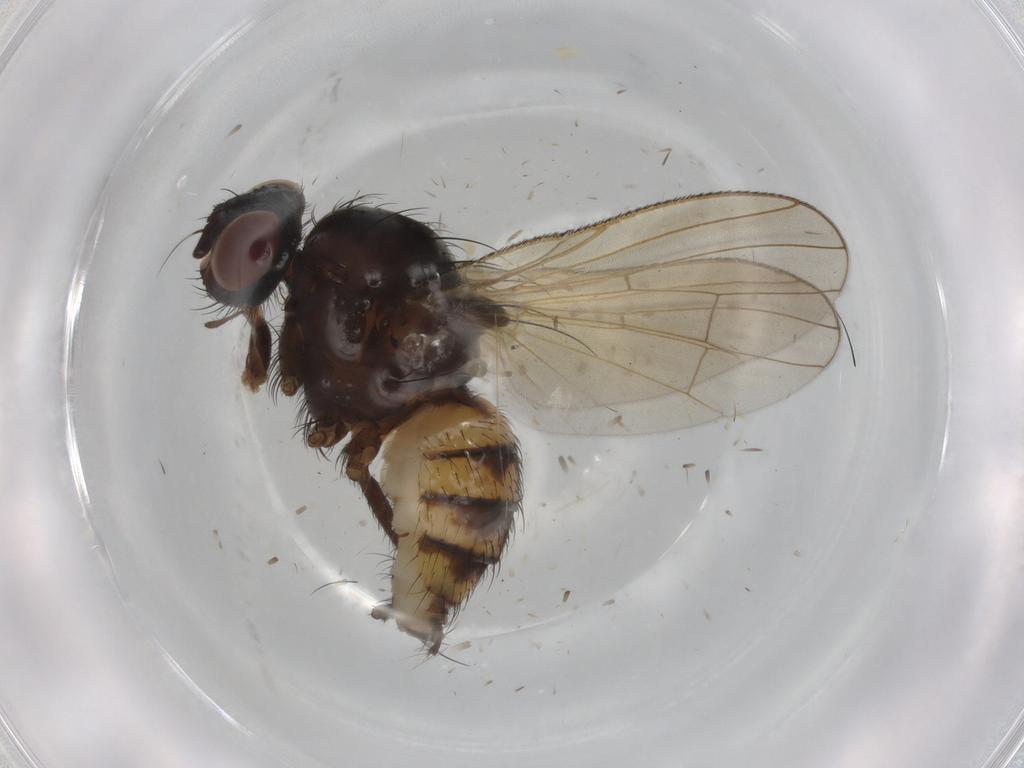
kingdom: Animalia
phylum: Arthropoda
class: Insecta
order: Diptera
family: Anthomyiidae
